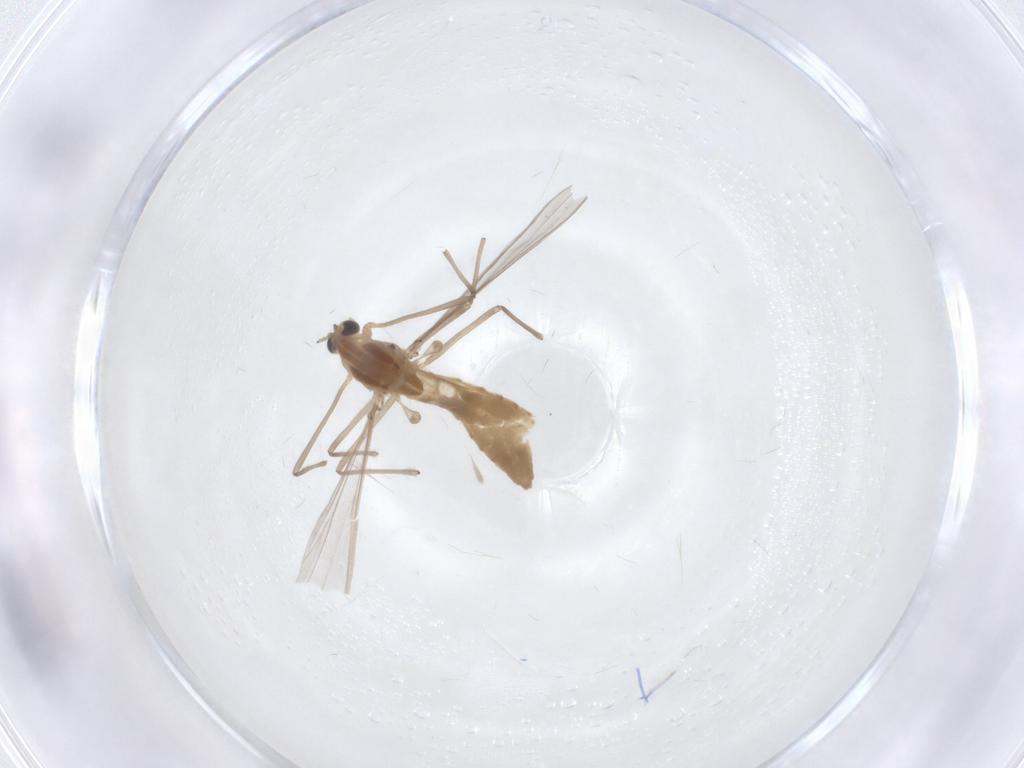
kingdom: Animalia
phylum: Arthropoda
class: Insecta
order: Diptera
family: Chironomidae
